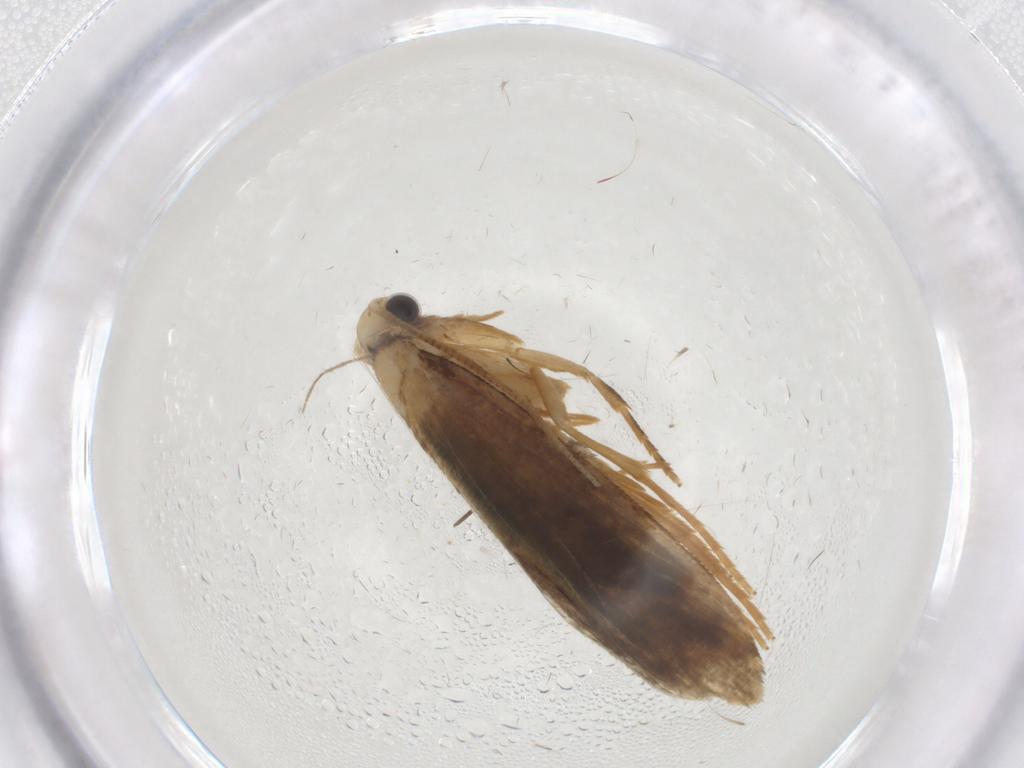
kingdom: Animalia
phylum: Arthropoda
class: Insecta
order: Lepidoptera
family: Tineidae
